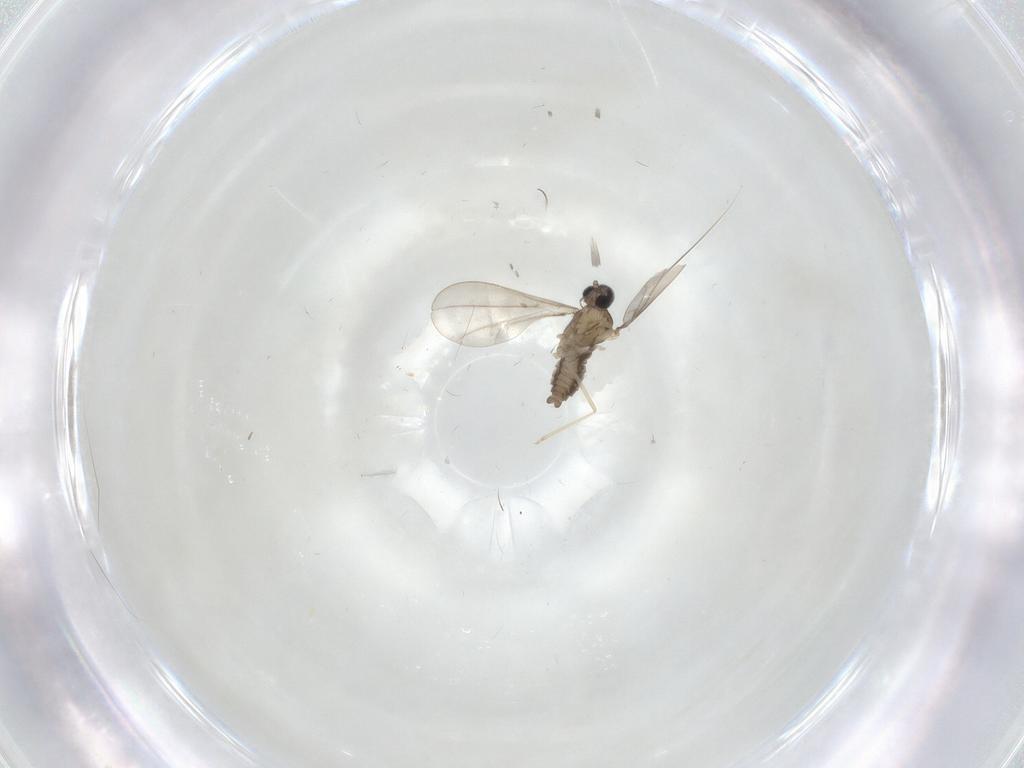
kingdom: Animalia
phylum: Arthropoda
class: Insecta
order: Diptera
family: Cecidomyiidae
